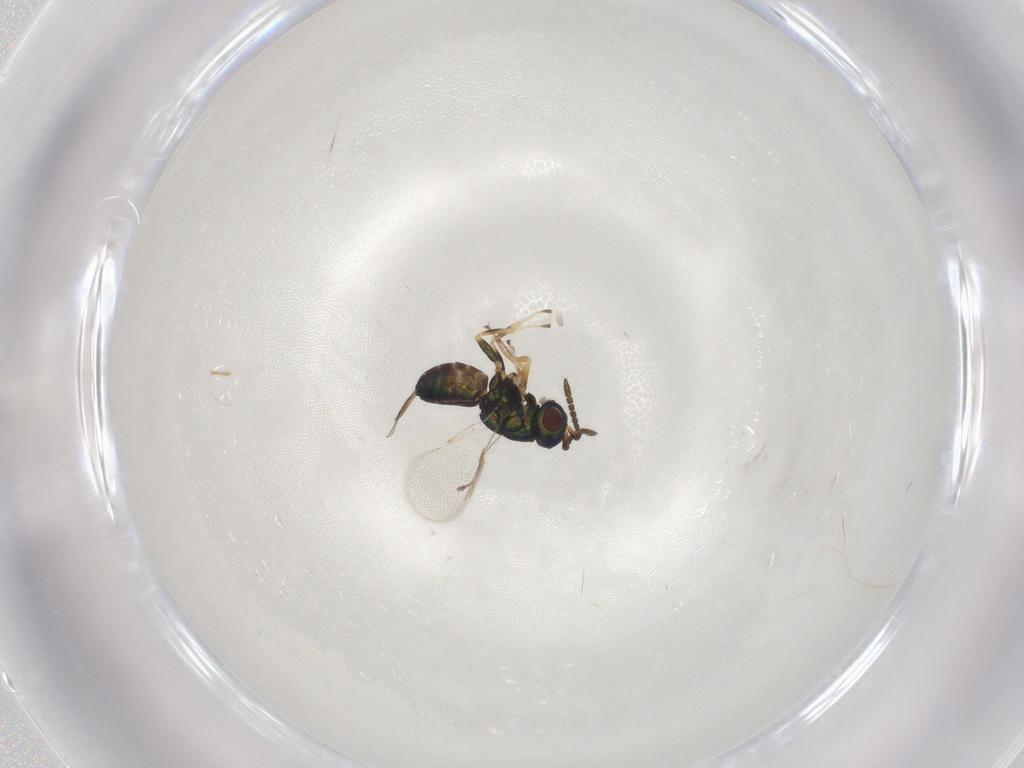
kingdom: Animalia
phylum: Arthropoda
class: Insecta
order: Hymenoptera
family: Pteromalidae
